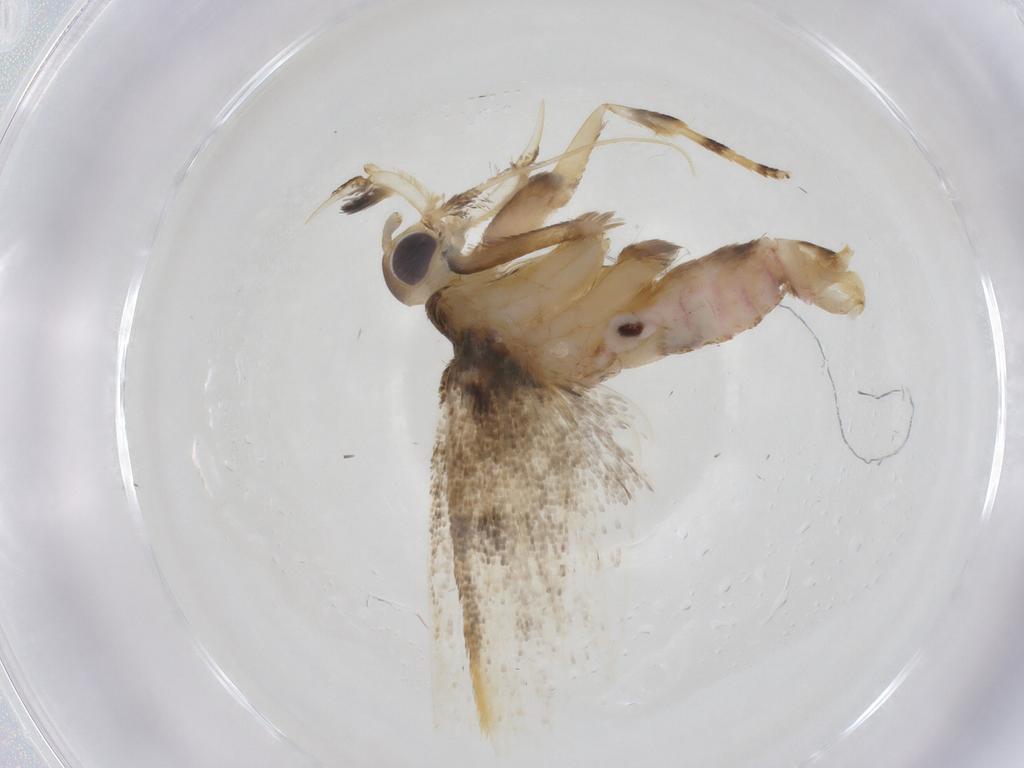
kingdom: Animalia
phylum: Arthropoda
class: Insecta
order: Lepidoptera
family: Lecithoceridae
